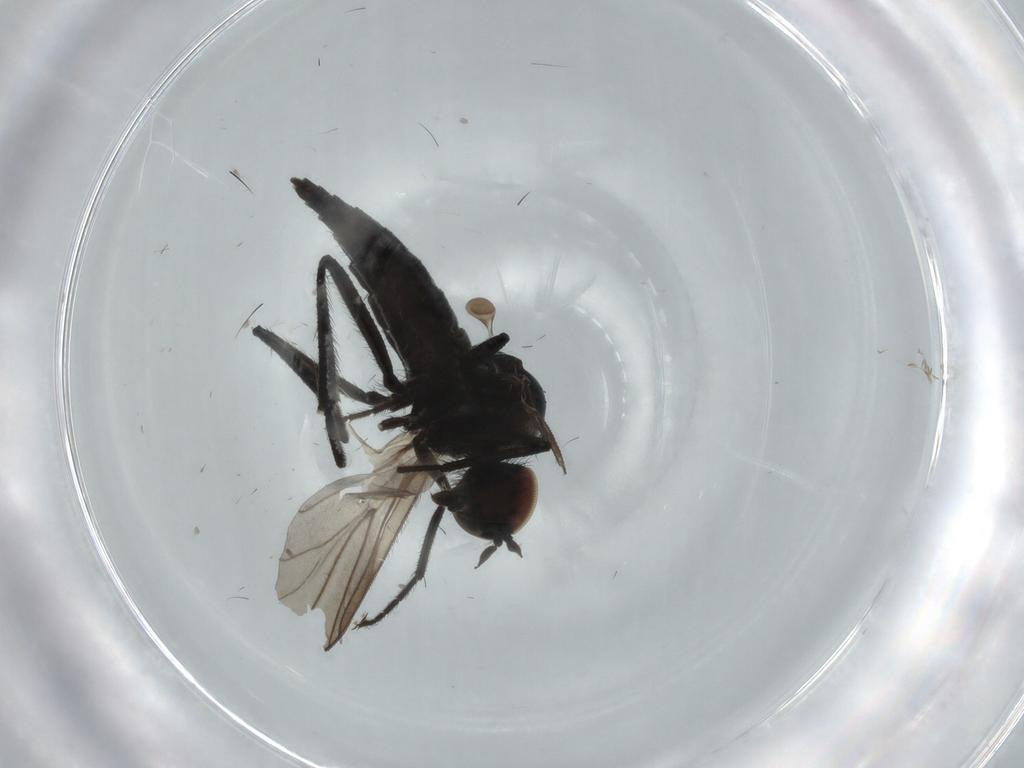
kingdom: Animalia
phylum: Arthropoda
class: Insecta
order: Diptera
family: Hybotidae
